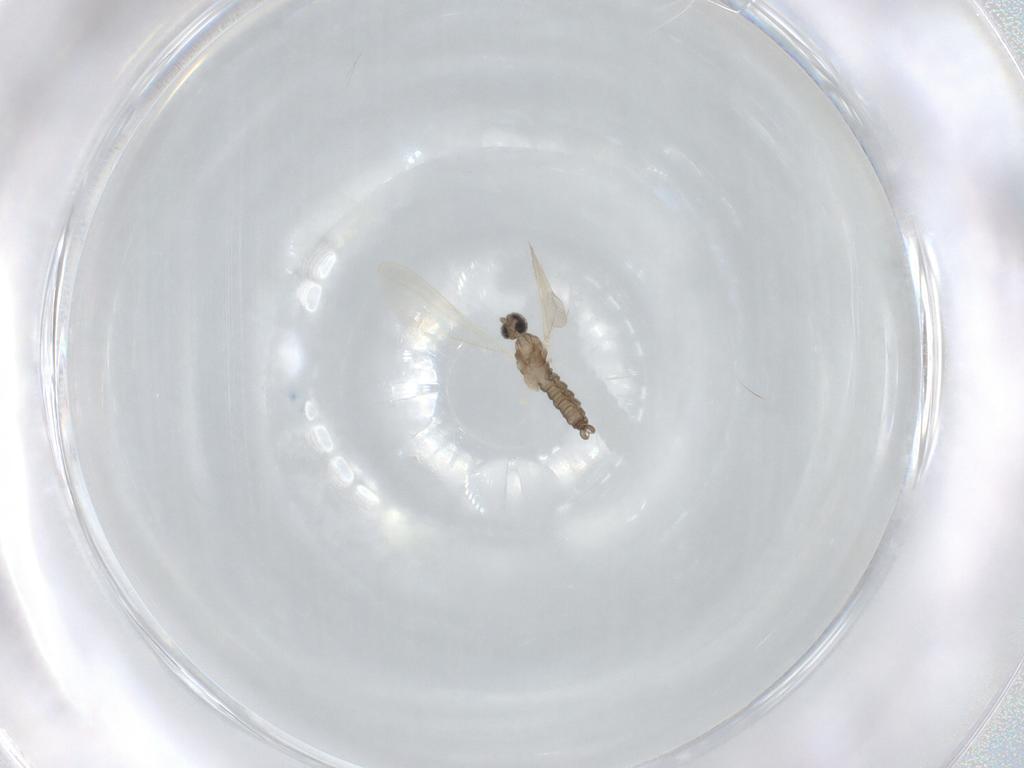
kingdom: Animalia
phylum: Arthropoda
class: Insecta
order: Diptera
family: Cecidomyiidae
